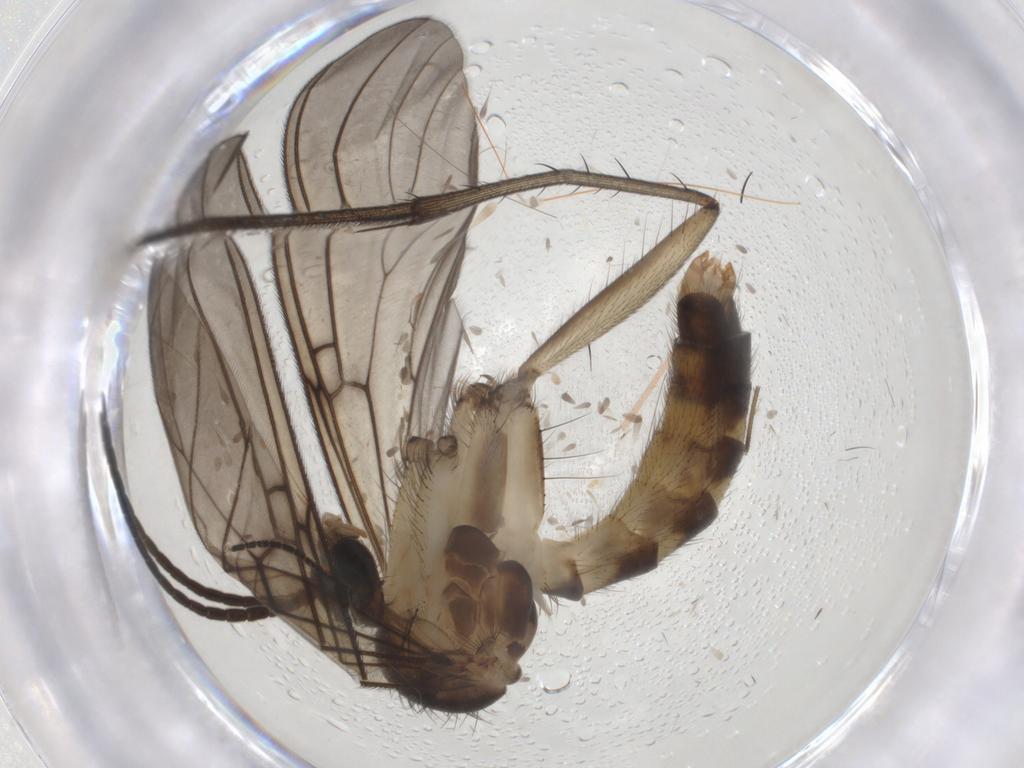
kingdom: Animalia
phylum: Arthropoda
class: Insecta
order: Diptera
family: Mycetophilidae
